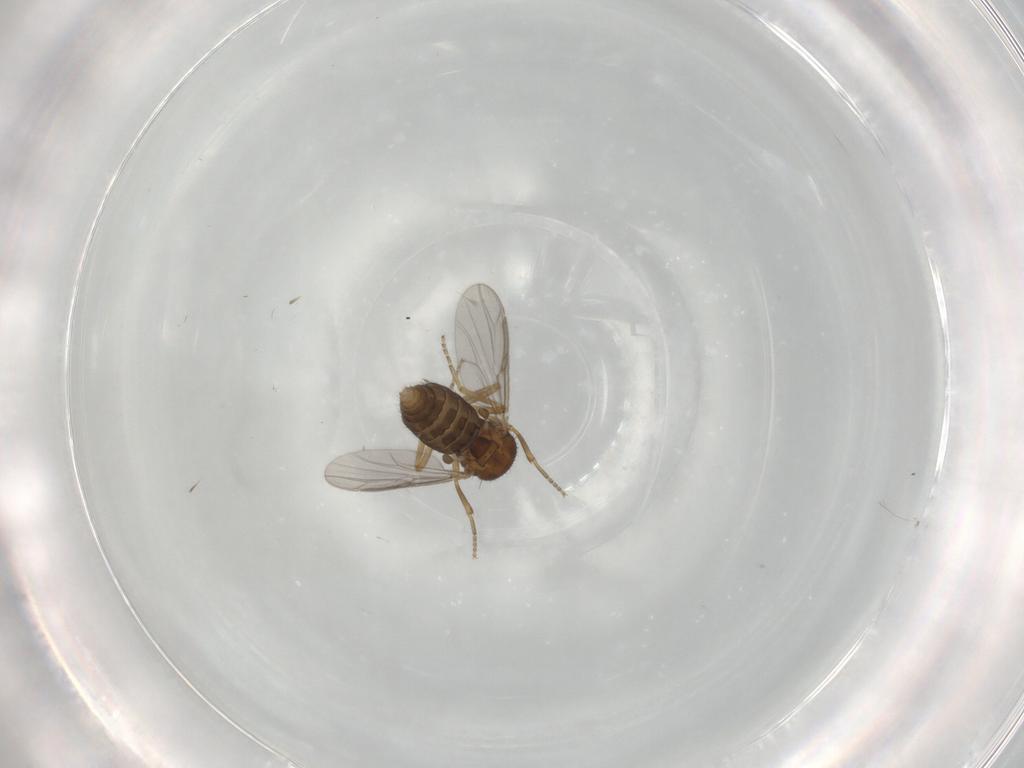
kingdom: Animalia
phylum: Arthropoda
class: Insecta
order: Diptera
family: Ceratopogonidae
